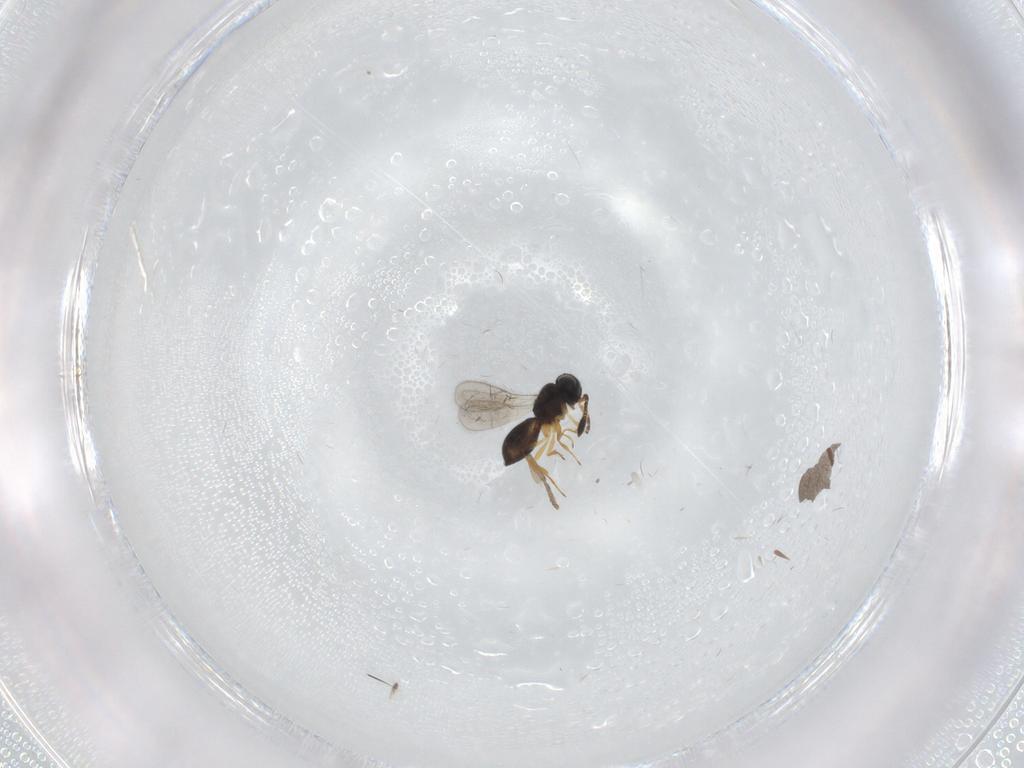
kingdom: Animalia
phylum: Arthropoda
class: Insecta
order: Hymenoptera
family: Scelionidae
